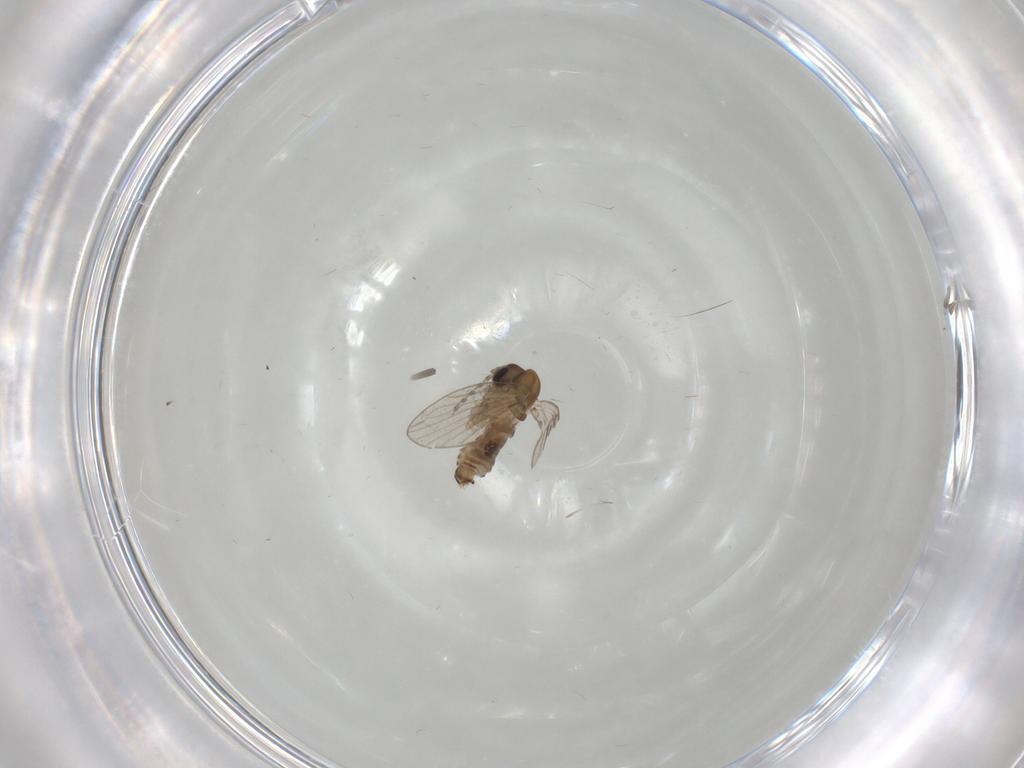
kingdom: Animalia
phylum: Arthropoda
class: Insecta
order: Diptera
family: Psychodidae
